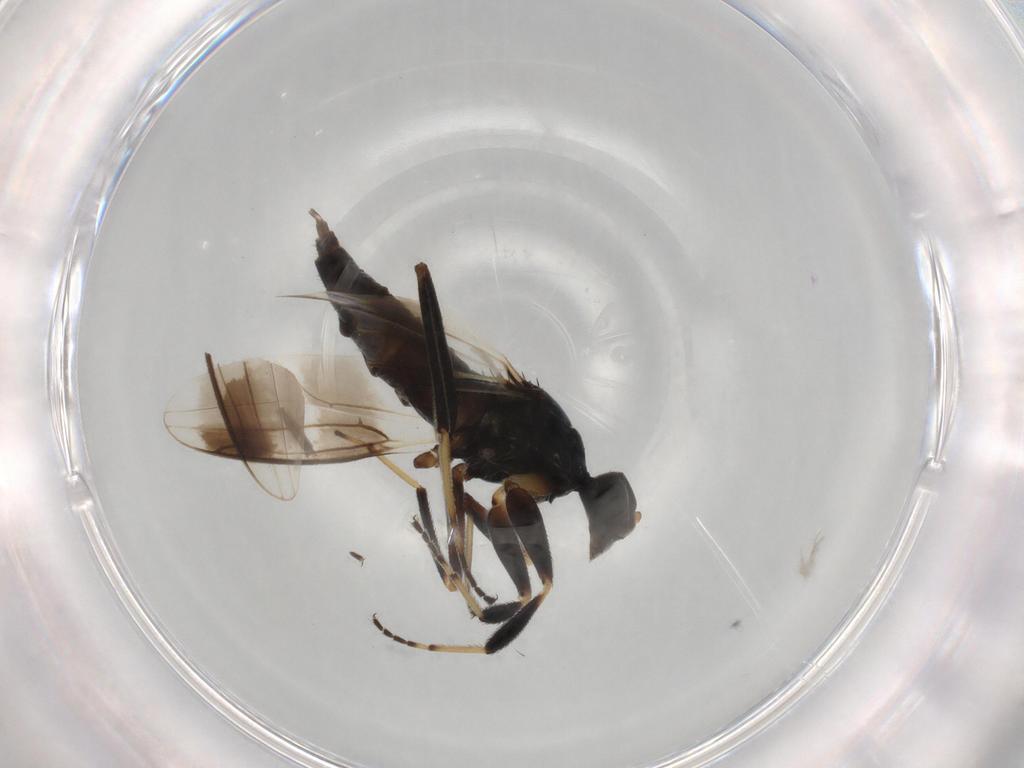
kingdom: Animalia
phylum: Arthropoda
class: Insecta
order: Diptera
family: Hybotidae
